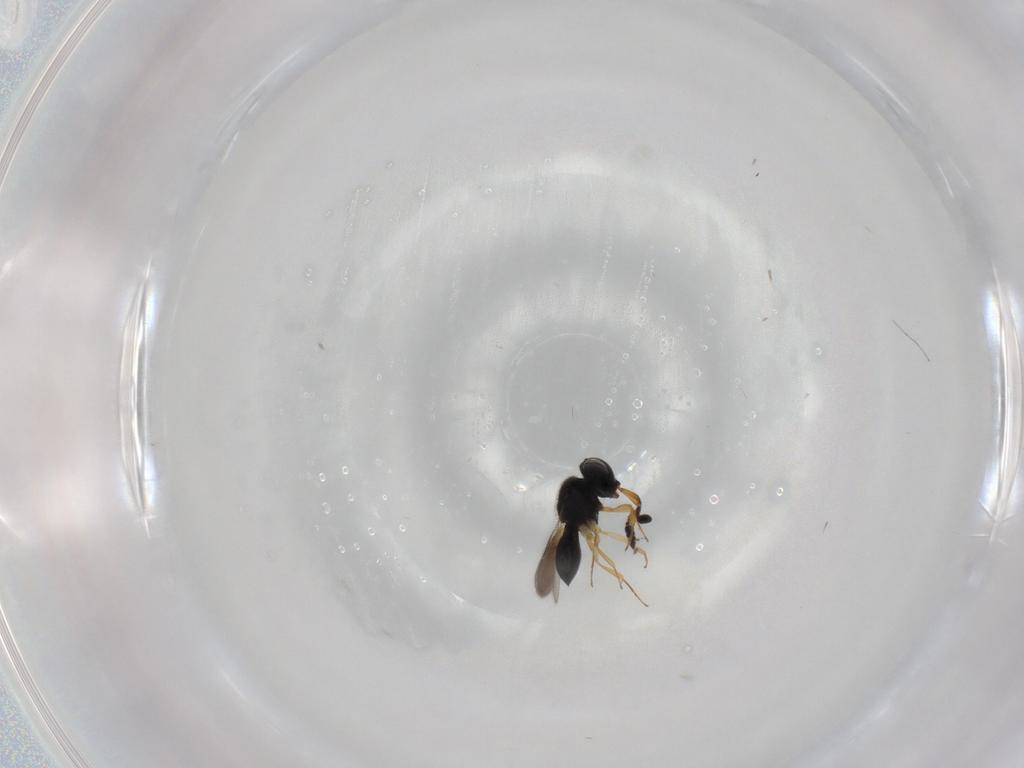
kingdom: Animalia
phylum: Arthropoda
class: Insecta
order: Hymenoptera
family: Scelionidae
